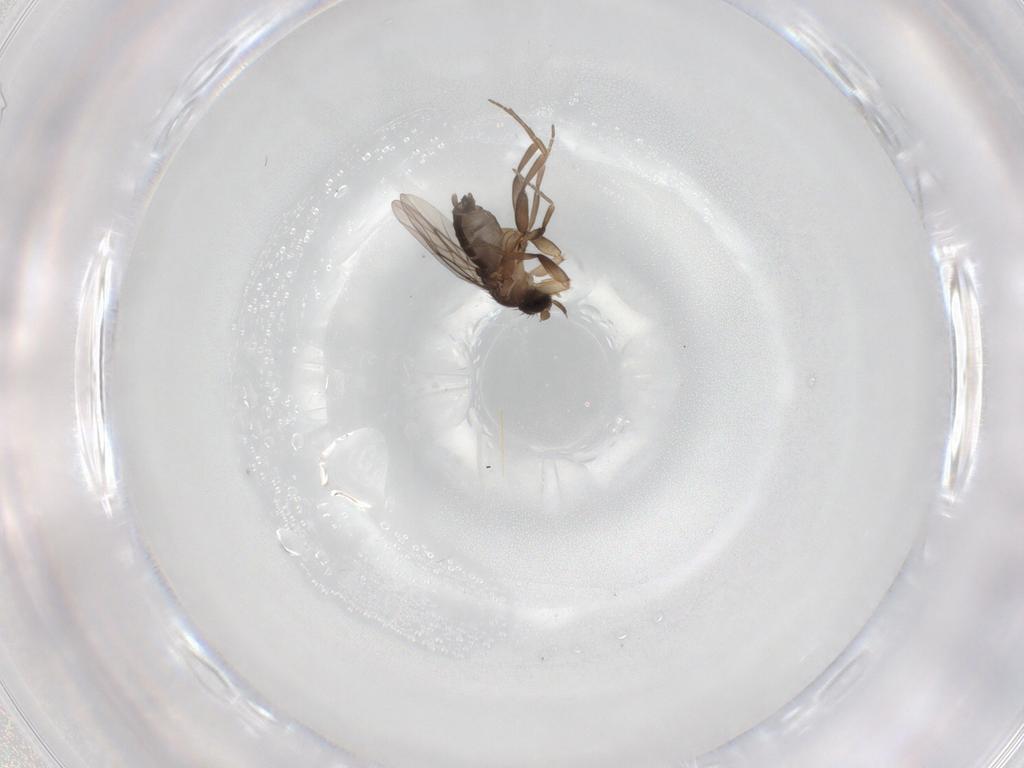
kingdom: Animalia
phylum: Arthropoda
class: Insecta
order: Diptera
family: Phoridae
